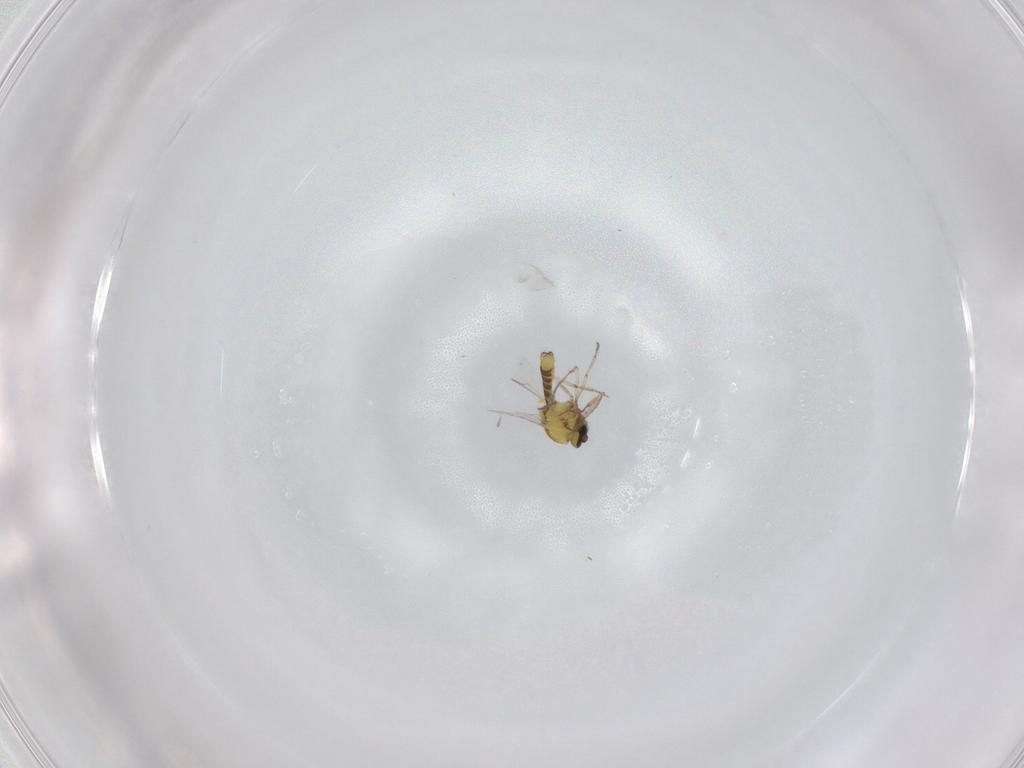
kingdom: Animalia
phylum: Arthropoda
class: Insecta
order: Diptera
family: Ceratopogonidae
